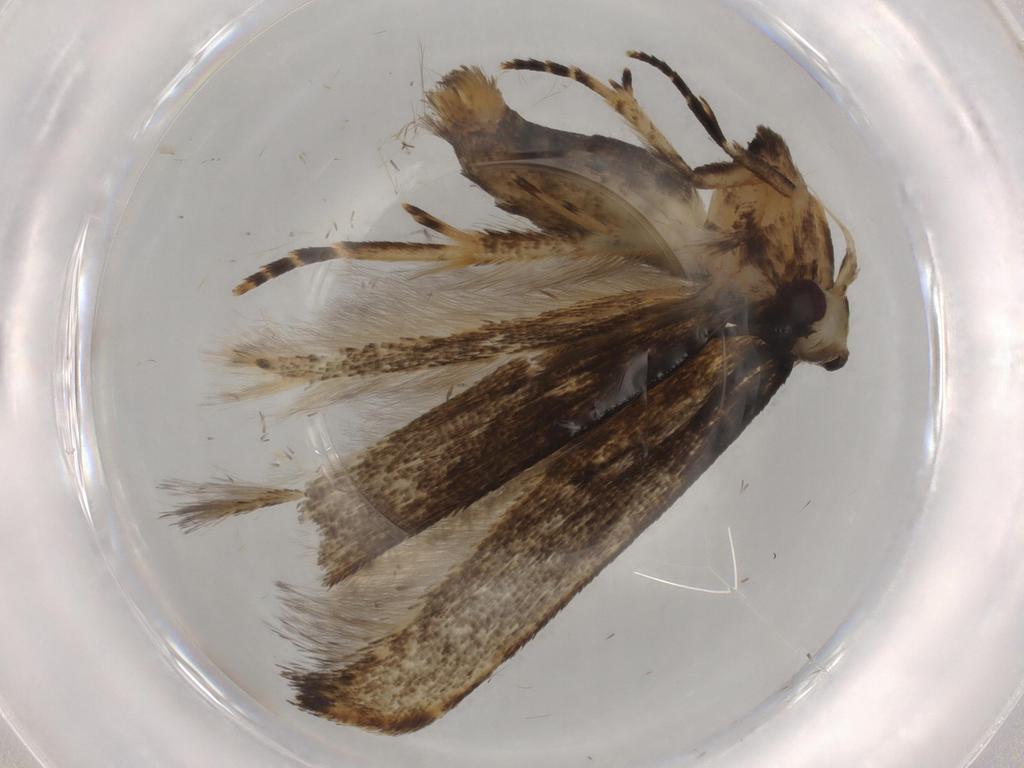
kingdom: Animalia
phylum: Arthropoda
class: Insecta
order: Lepidoptera
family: Cosmopterigidae
